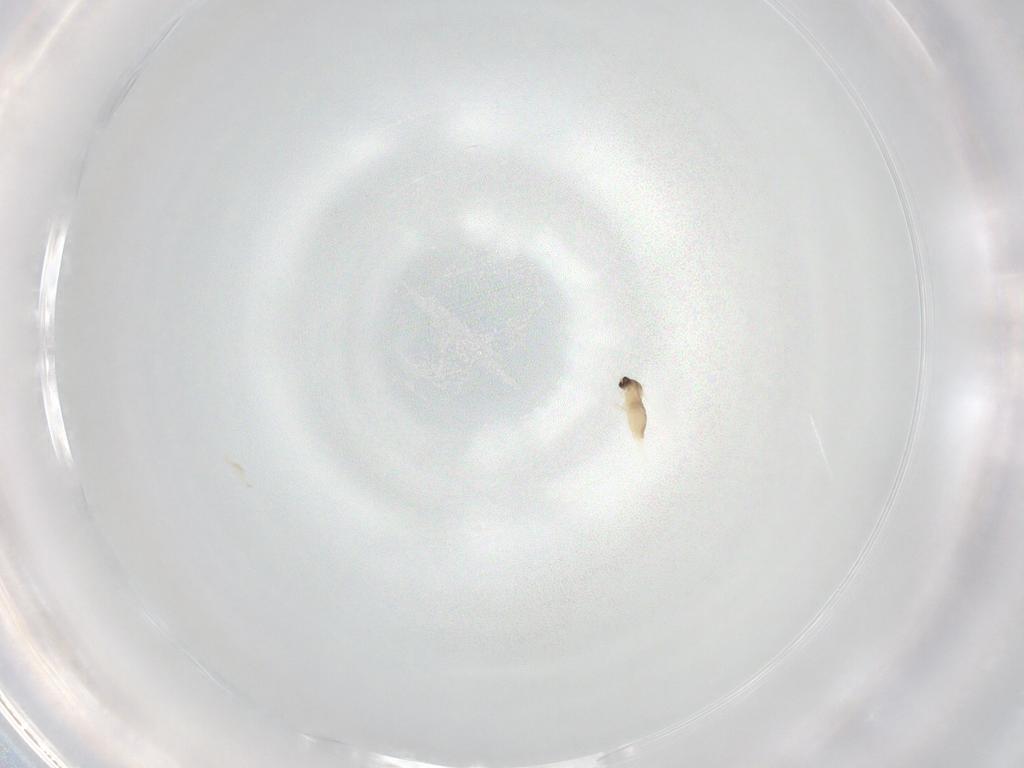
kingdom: Animalia
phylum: Arthropoda
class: Insecta
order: Diptera
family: Cecidomyiidae
